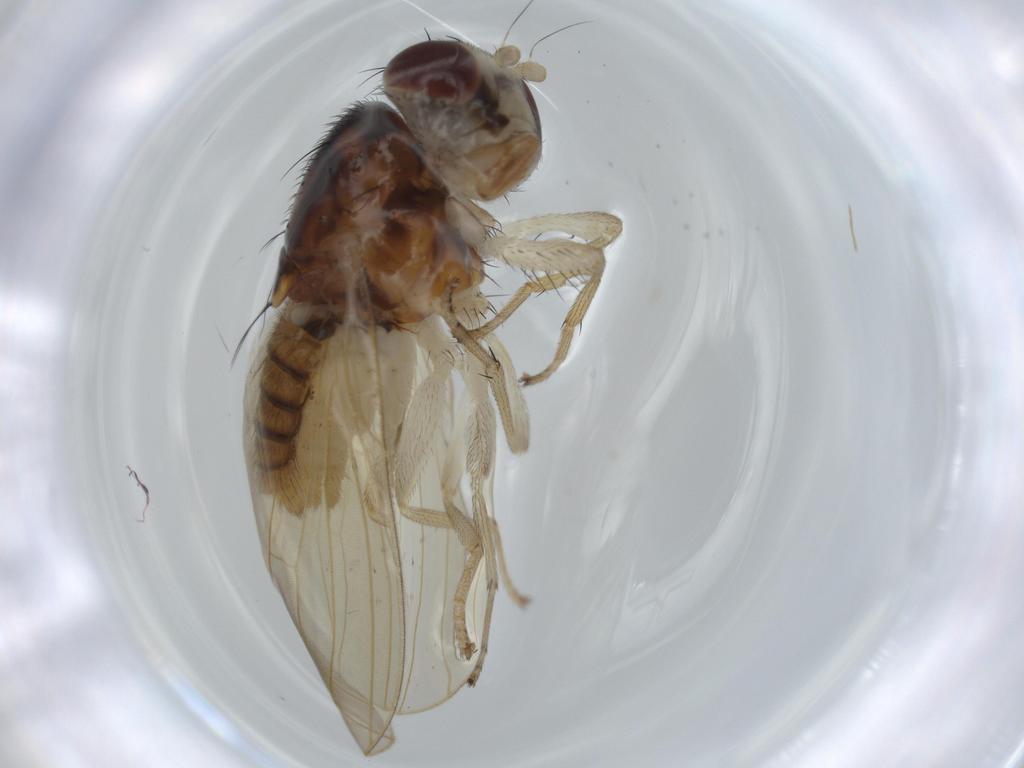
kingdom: Animalia
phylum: Arthropoda
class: Insecta
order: Diptera
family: Lauxaniidae
